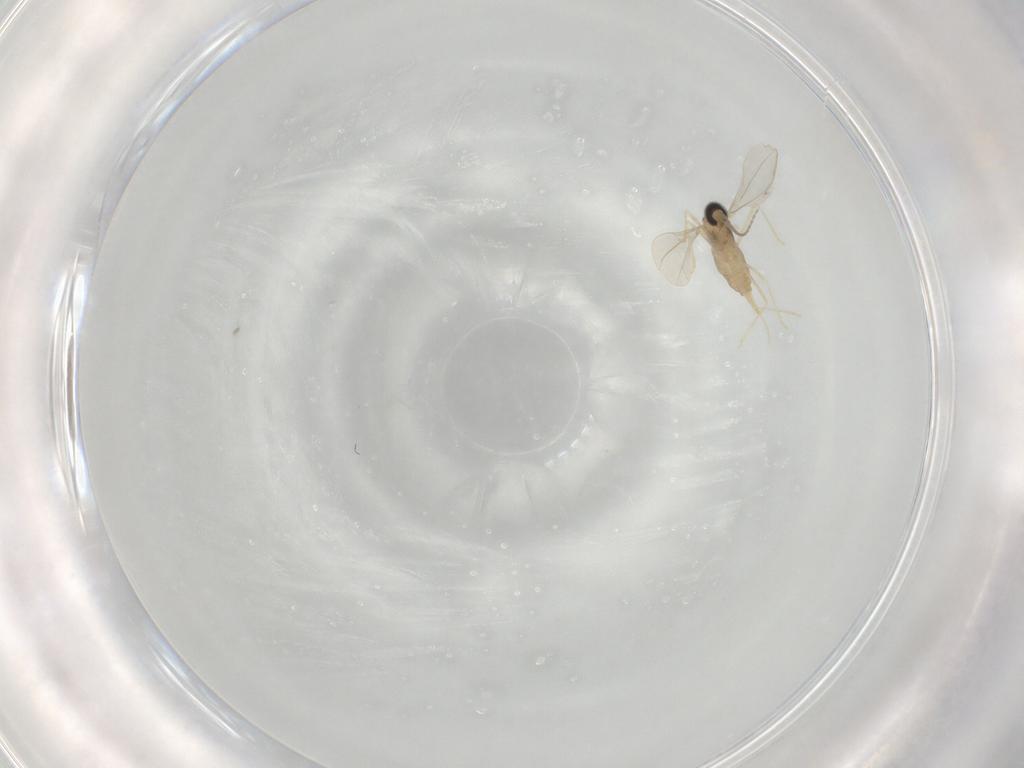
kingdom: Animalia
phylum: Arthropoda
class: Insecta
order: Diptera
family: Cecidomyiidae
